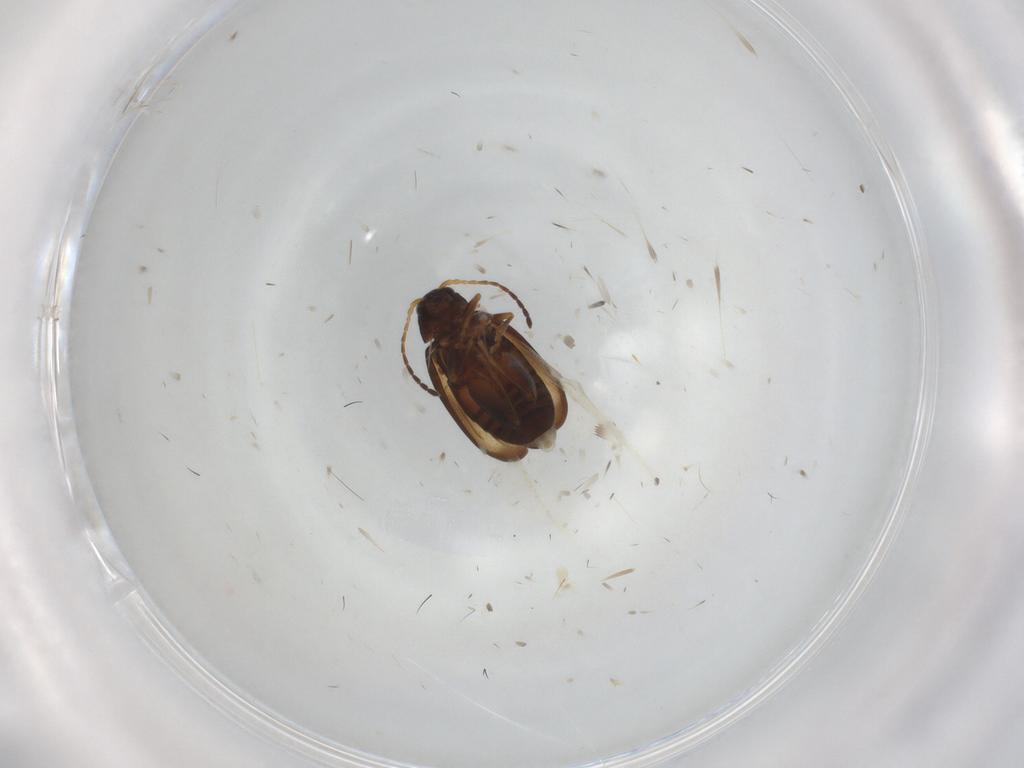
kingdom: Animalia
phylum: Arthropoda
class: Insecta
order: Coleoptera
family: Chrysomelidae
